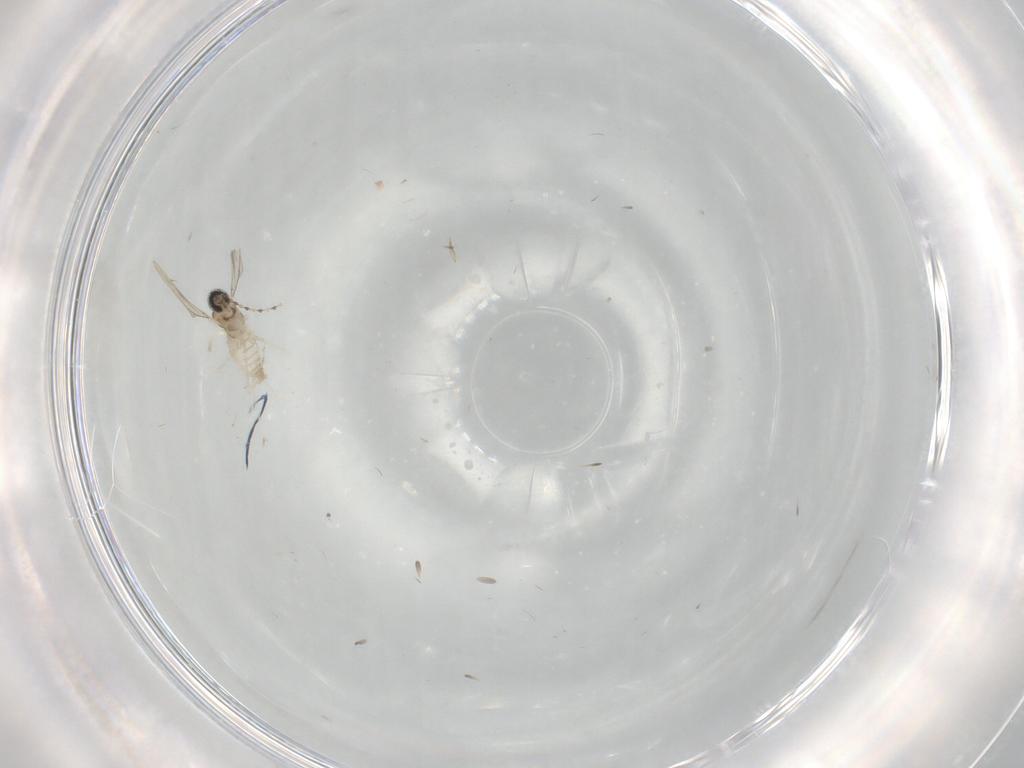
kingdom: Animalia
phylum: Arthropoda
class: Insecta
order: Diptera
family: Cecidomyiidae
